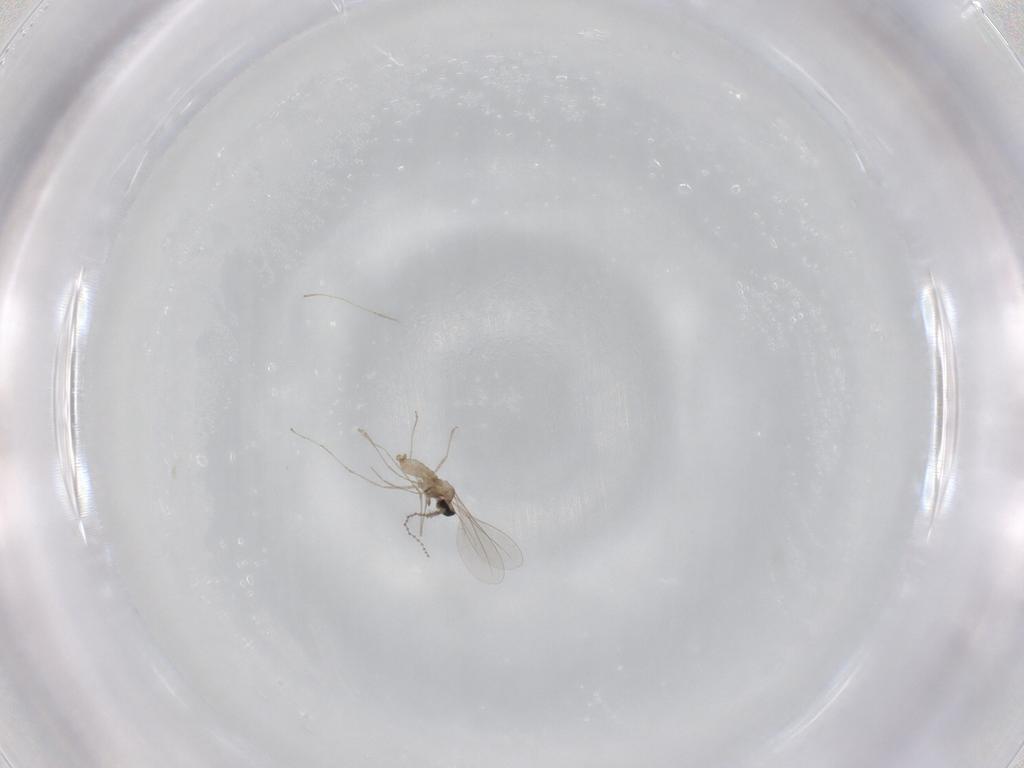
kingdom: Animalia
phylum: Arthropoda
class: Insecta
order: Diptera
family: Cecidomyiidae
